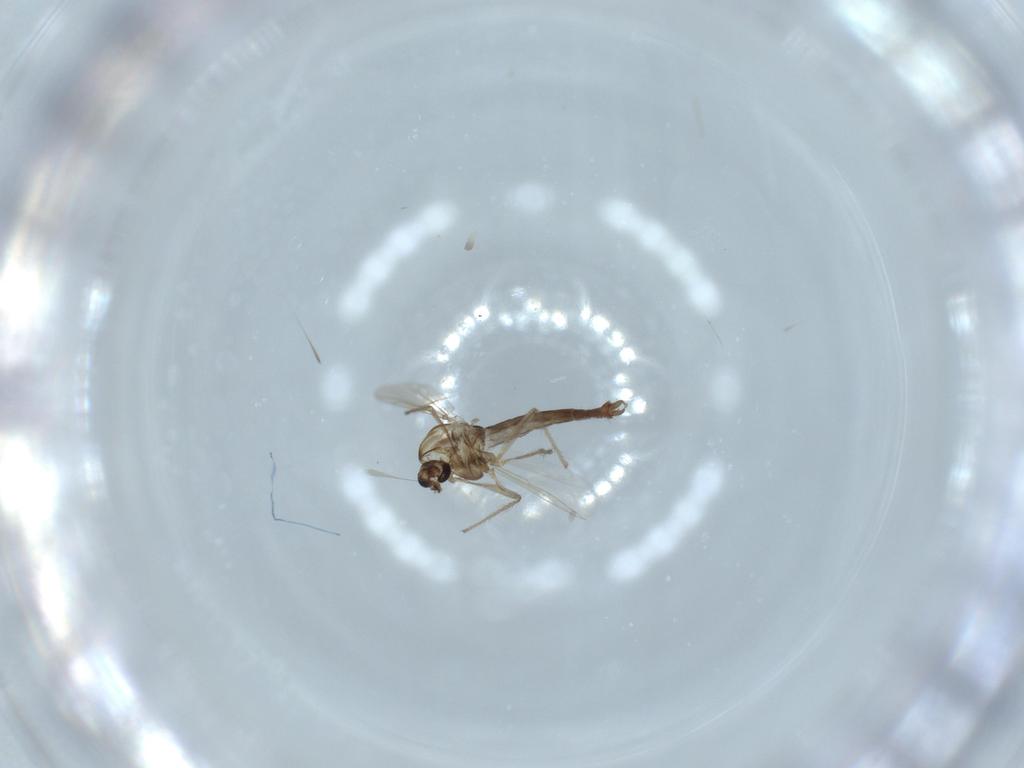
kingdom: Animalia
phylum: Arthropoda
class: Insecta
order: Diptera
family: Chironomidae
